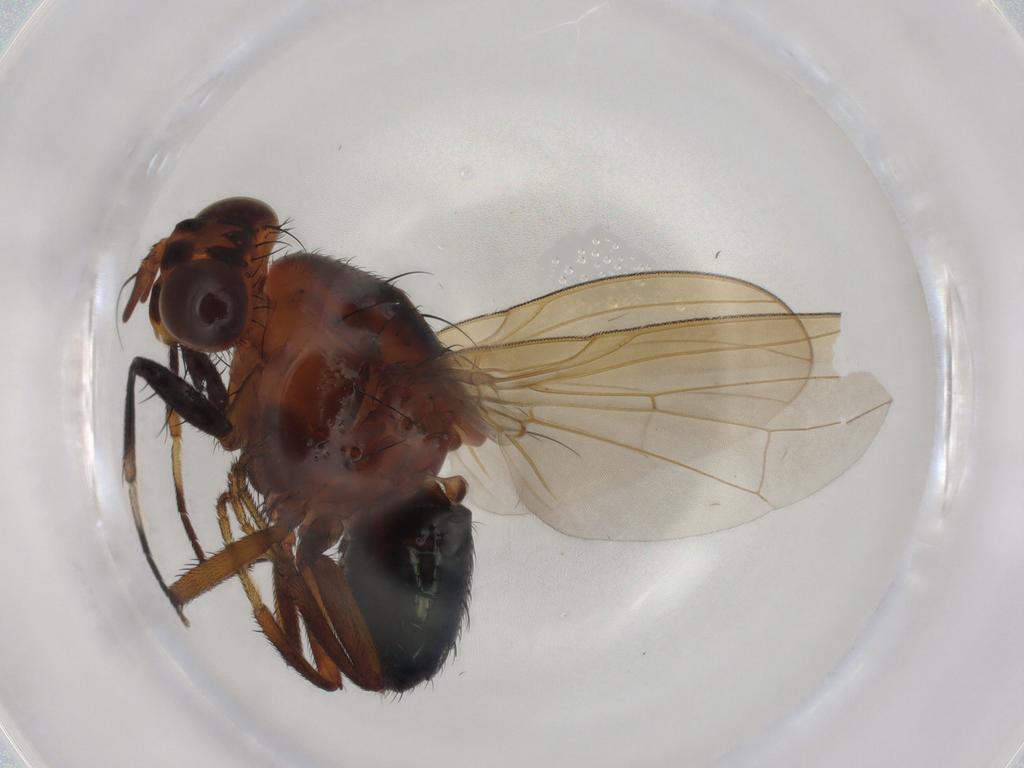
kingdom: Animalia
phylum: Arthropoda
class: Insecta
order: Diptera
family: Lauxaniidae
